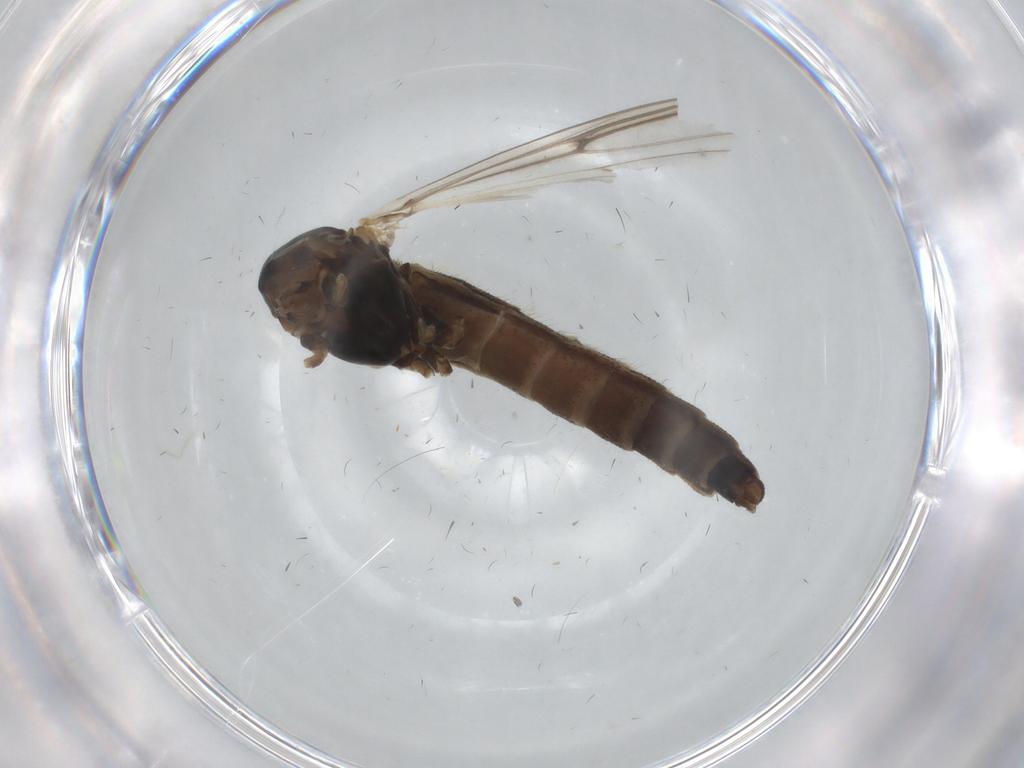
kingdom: Animalia
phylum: Arthropoda
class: Insecta
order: Diptera
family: Chironomidae
